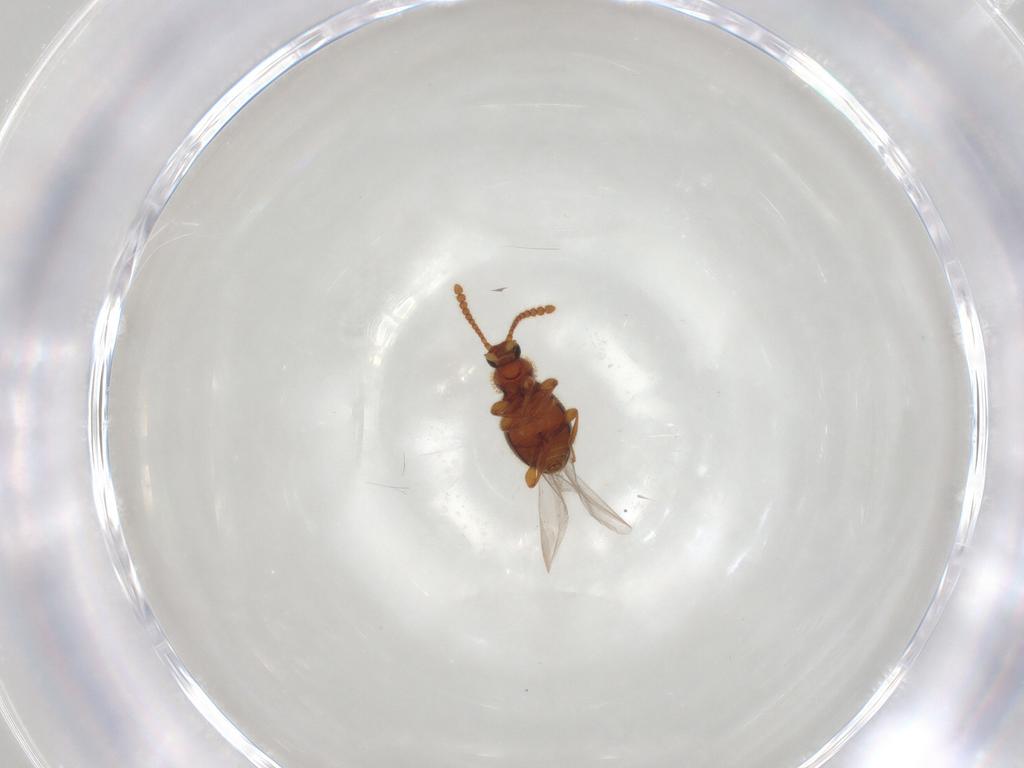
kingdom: Animalia
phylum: Arthropoda
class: Insecta
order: Coleoptera
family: Staphylinidae
